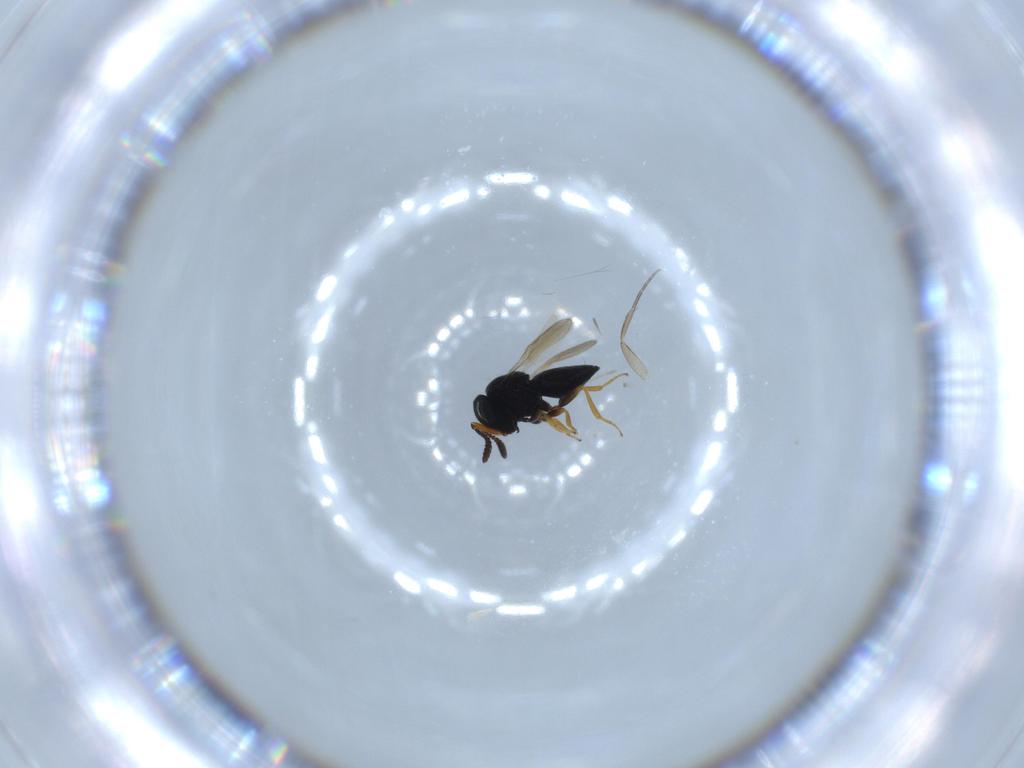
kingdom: Animalia
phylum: Arthropoda
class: Insecta
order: Hymenoptera
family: Scelionidae
